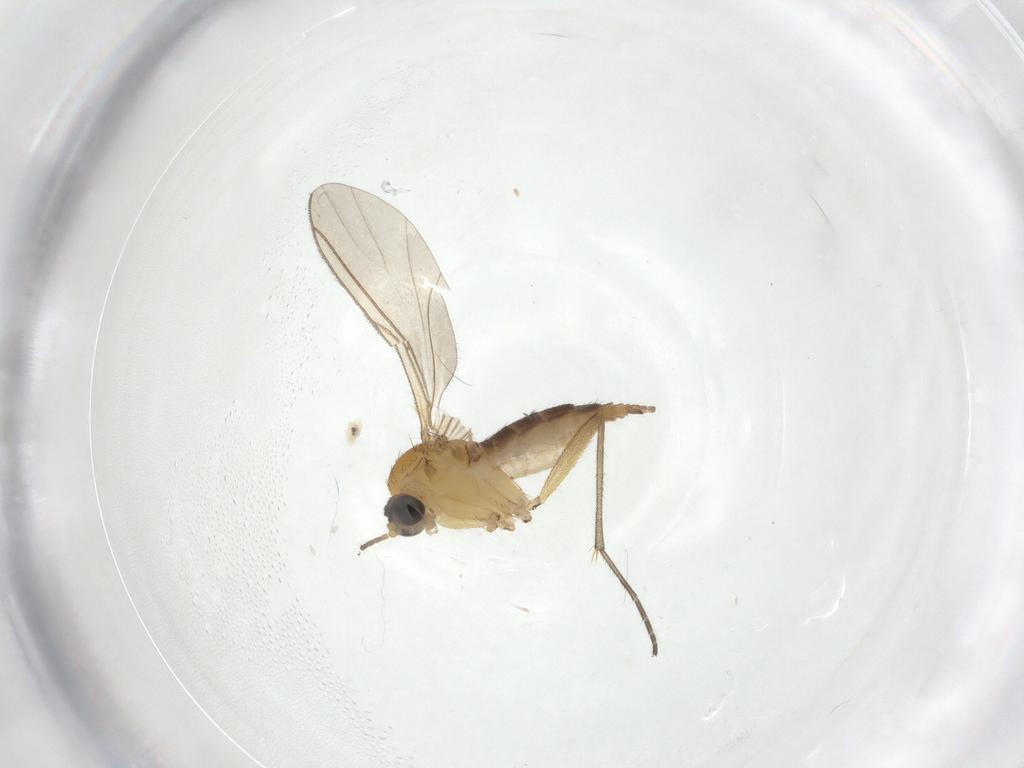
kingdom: Animalia
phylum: Arthropoda
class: Insecta
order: Diptera
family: Sciaridae
